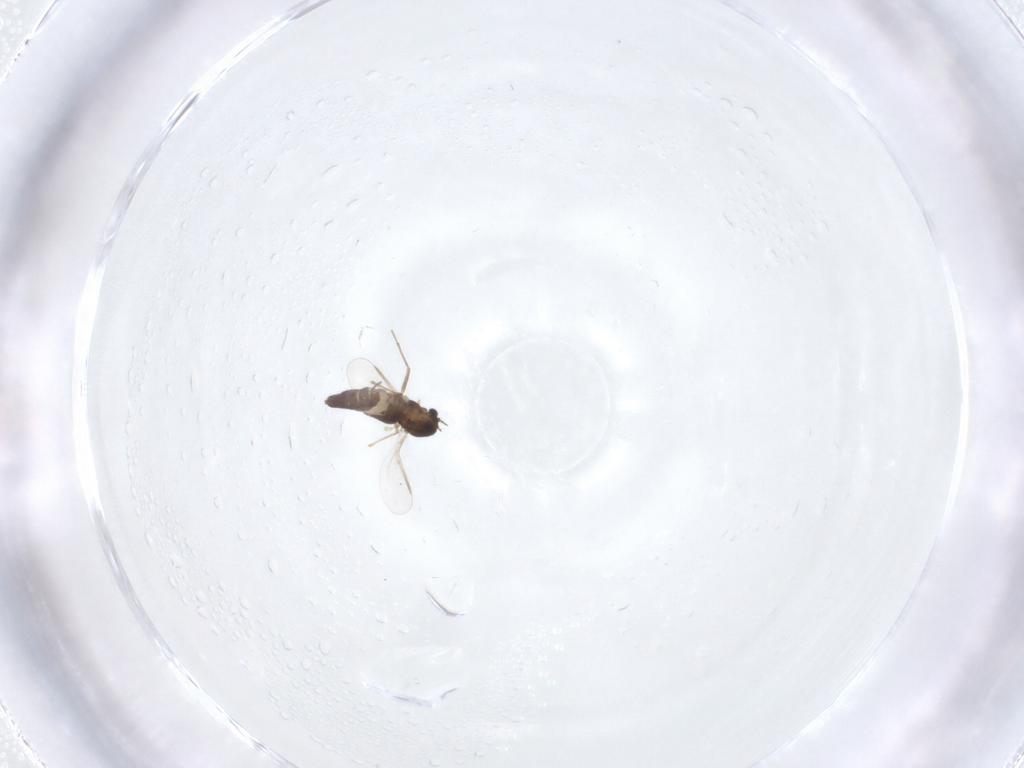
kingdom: Animalia
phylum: Arthropoda
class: Insecta
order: Diptera
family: Chironomidae
